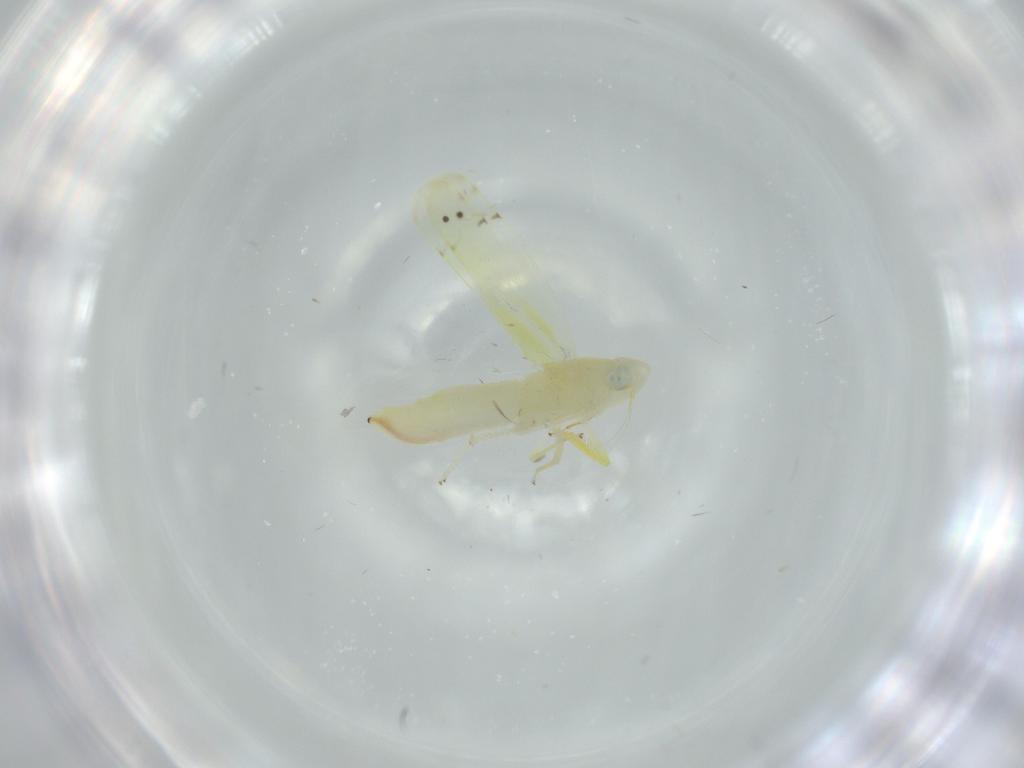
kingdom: Animalia
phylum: Arthropoda
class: Insecta
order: Hemiptera
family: Cicadellidae
